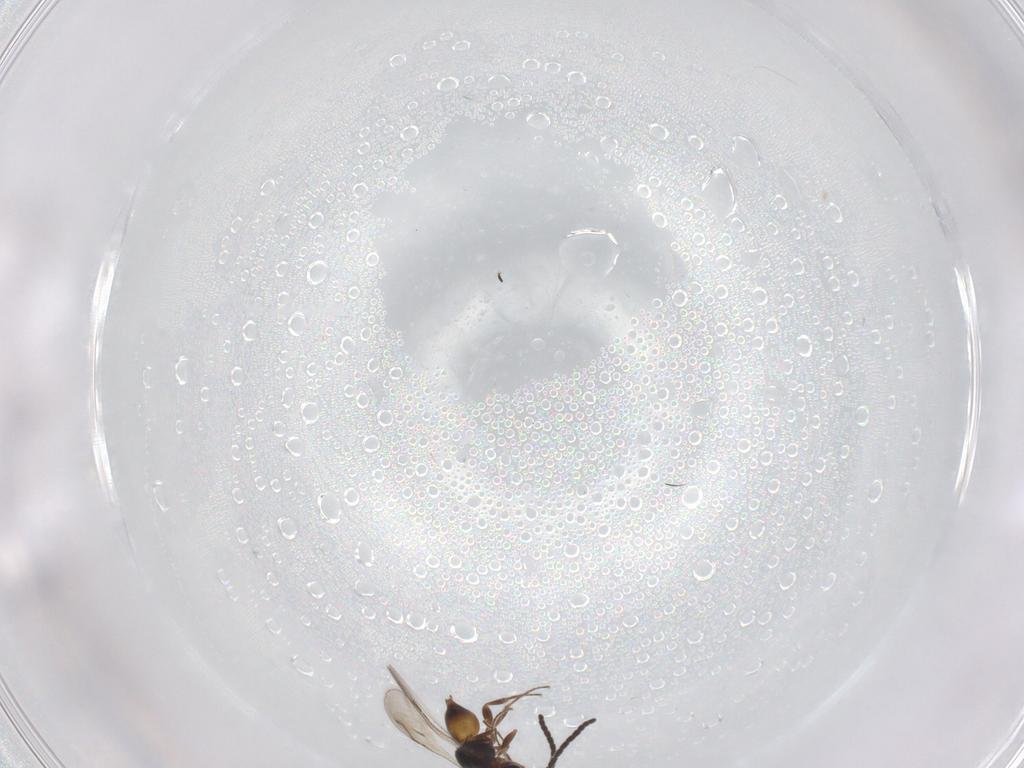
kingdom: Animalia
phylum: Arthropoda
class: Insecta
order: Hymenoptera
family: Ceraphronidae
